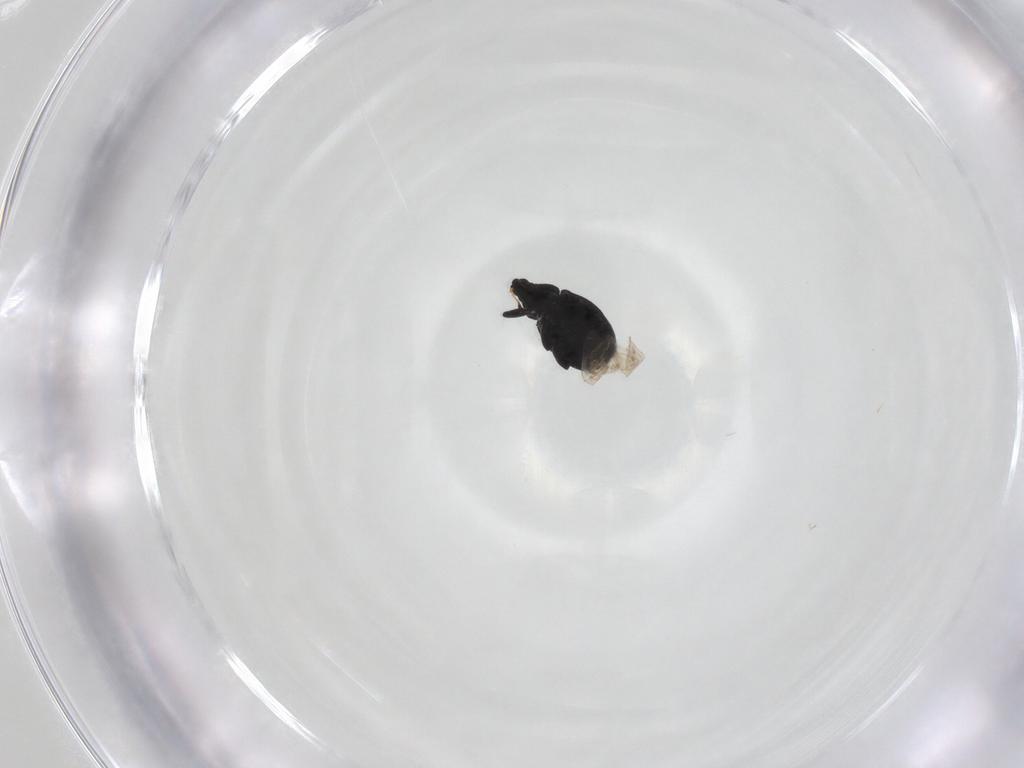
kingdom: Animalia
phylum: Arthropoda
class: Insecta
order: Coleoptera
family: Curculionidae
